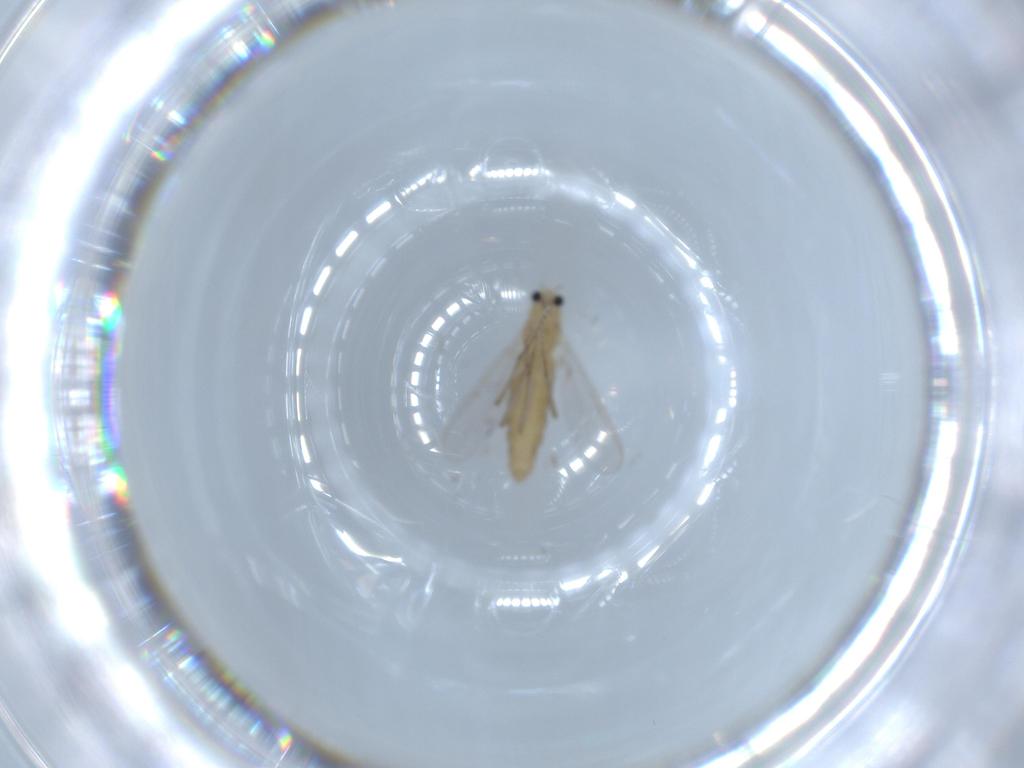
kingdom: Animalia
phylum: Arthropoda
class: Insecta
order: Diptera
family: Chironomidae
